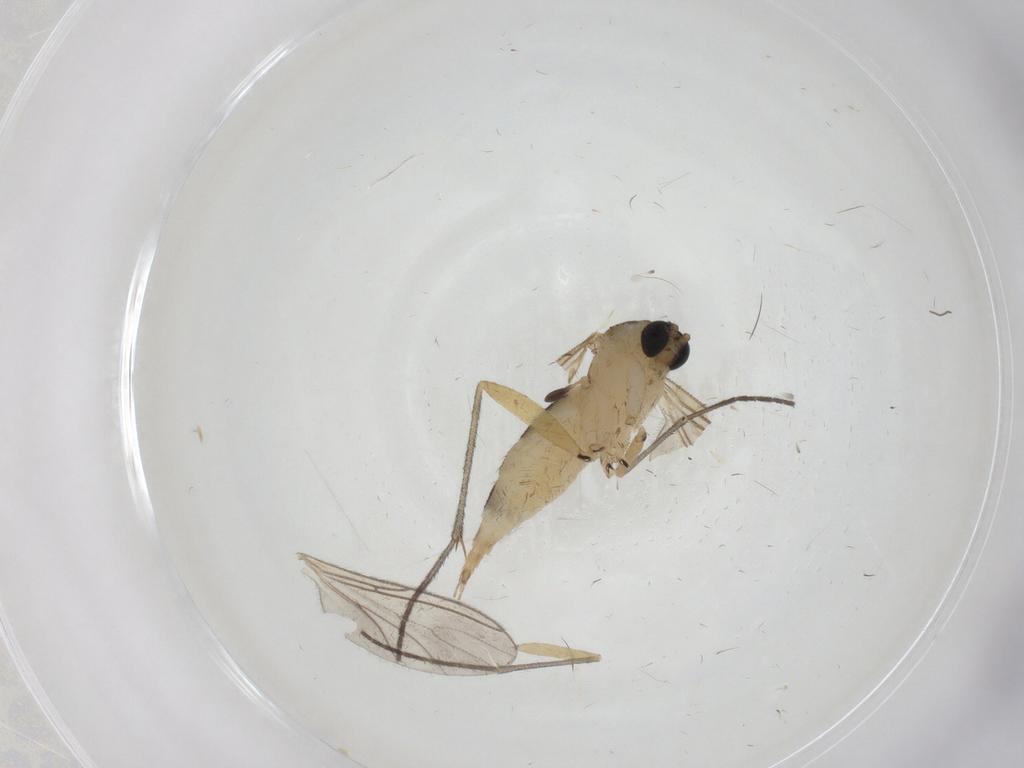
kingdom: Animalia
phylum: Arthropoda
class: Insecta
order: Diptera
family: Sciaridae
